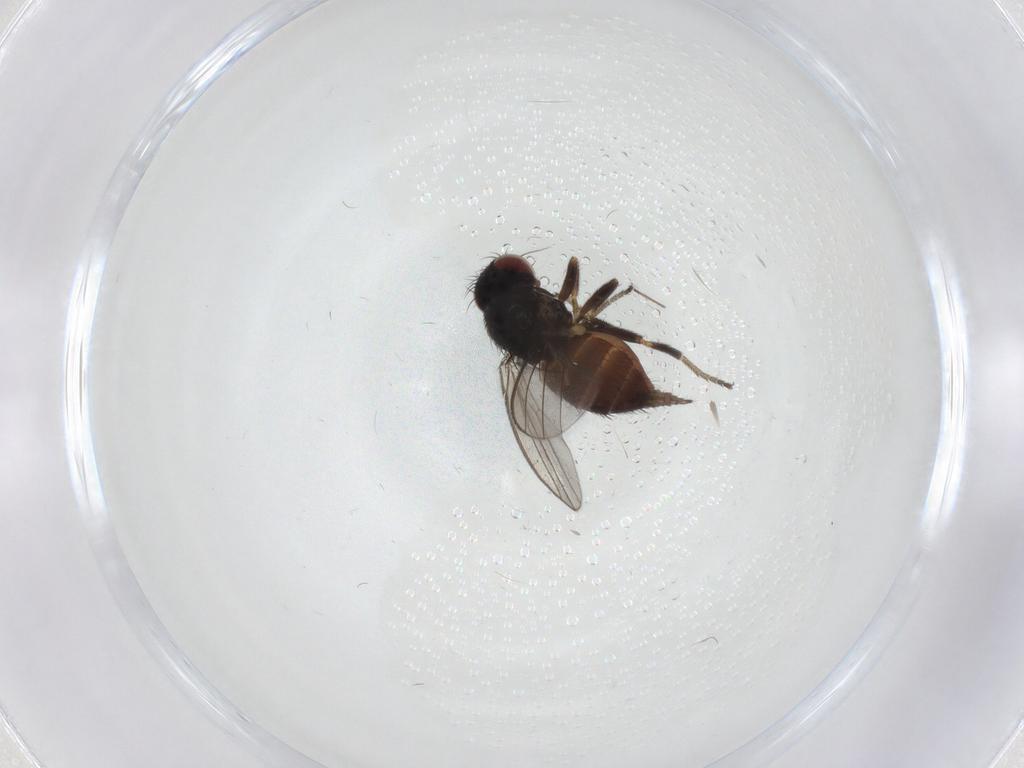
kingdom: Animalia
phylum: Arthropoda
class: Insecta
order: Diptera
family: Milichiidae
